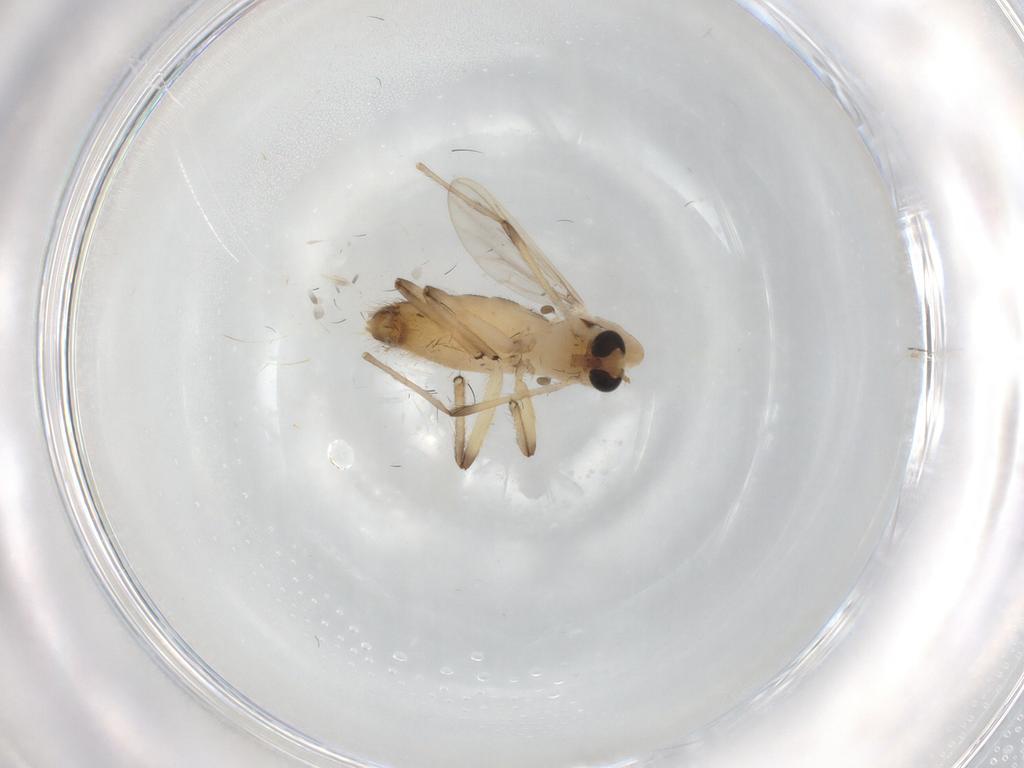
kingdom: Animalia
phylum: Arthropoda
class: Insecta
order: Diptera
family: Chironomidae
